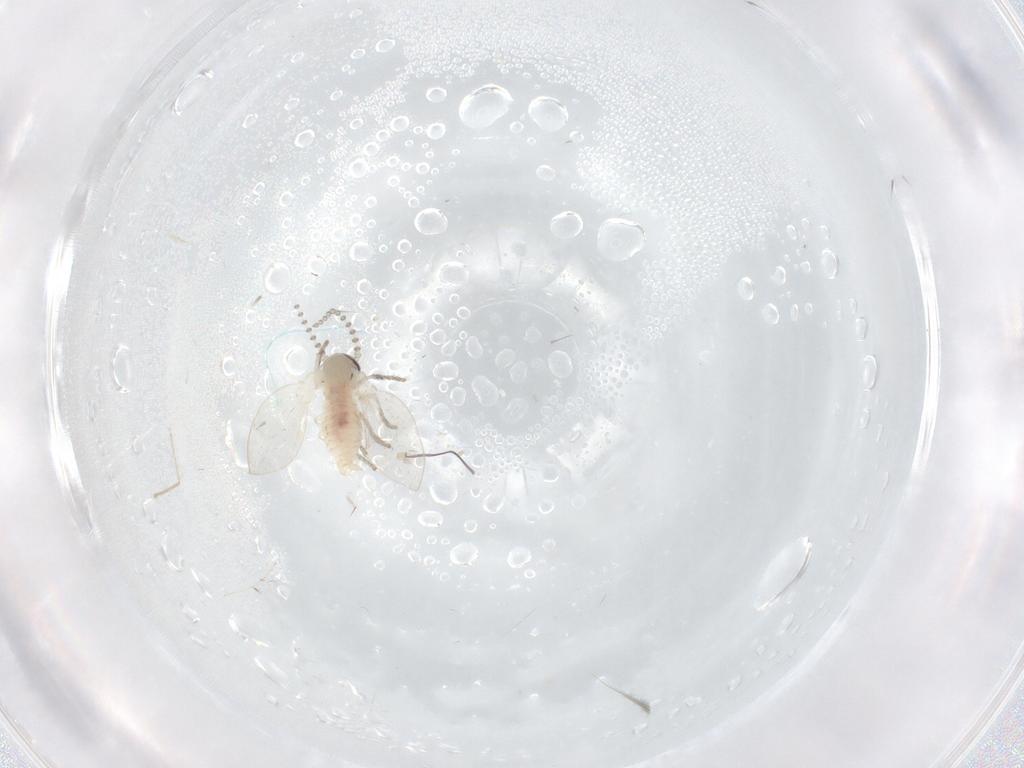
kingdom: Animalia
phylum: Arthropoda
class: Insecta
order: Diptera
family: Psychodidae
